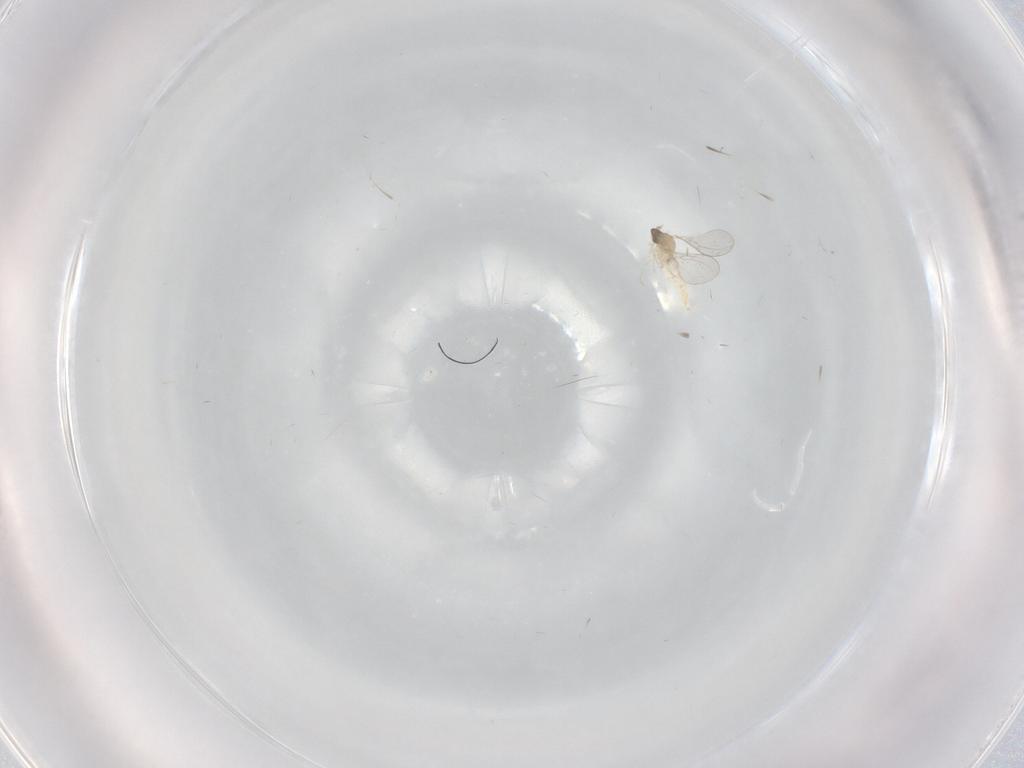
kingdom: Animalia
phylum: Arthropoda
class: Insecta
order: Diptera
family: Cecidomyiidae
